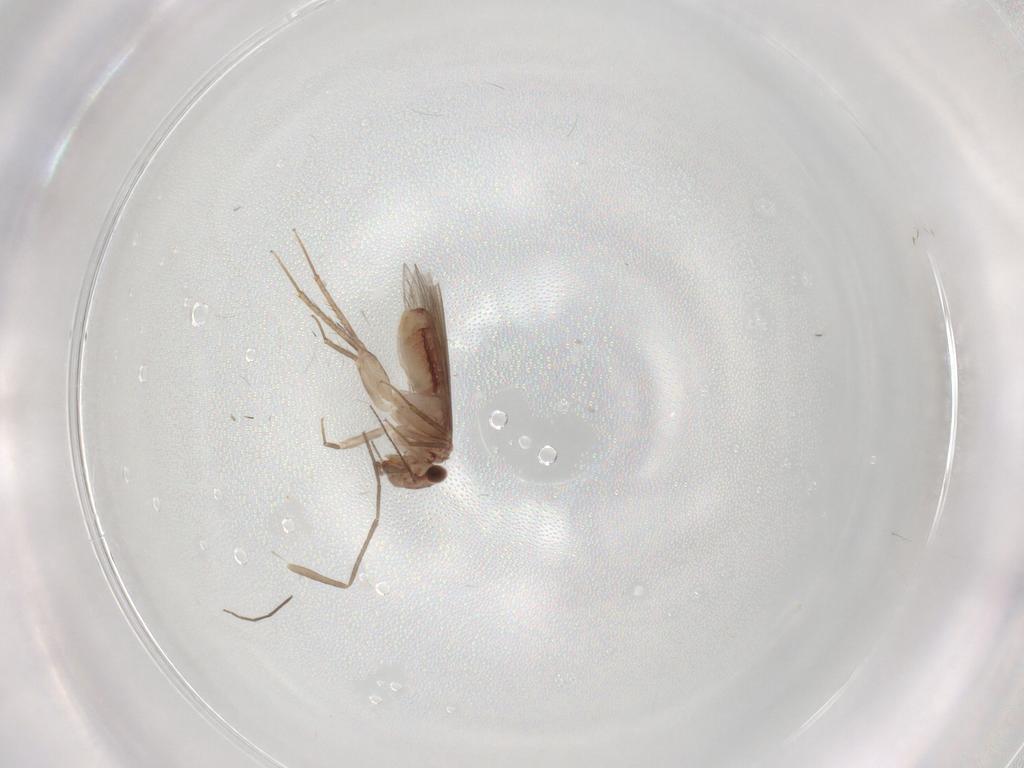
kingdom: Animalia
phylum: Arthropoda
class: Insecta
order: Psocodea
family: Lepidopsocidae
